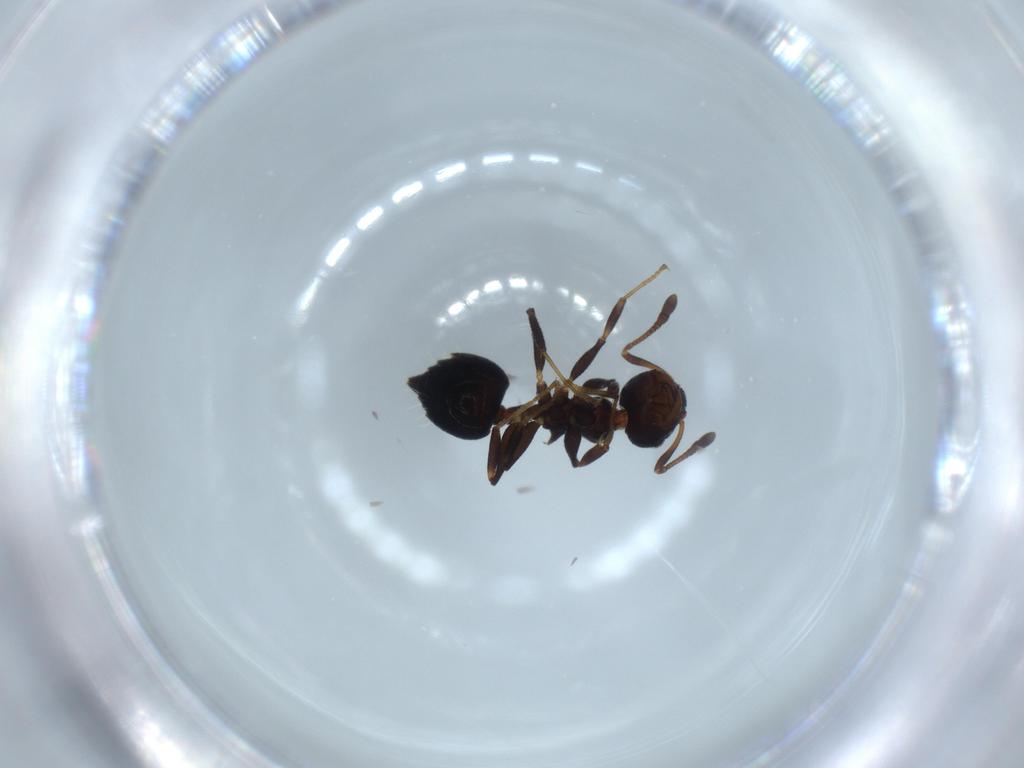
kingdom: Animalia
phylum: Arthropoda
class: Insecta
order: Hymenoptera
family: Formicidae
